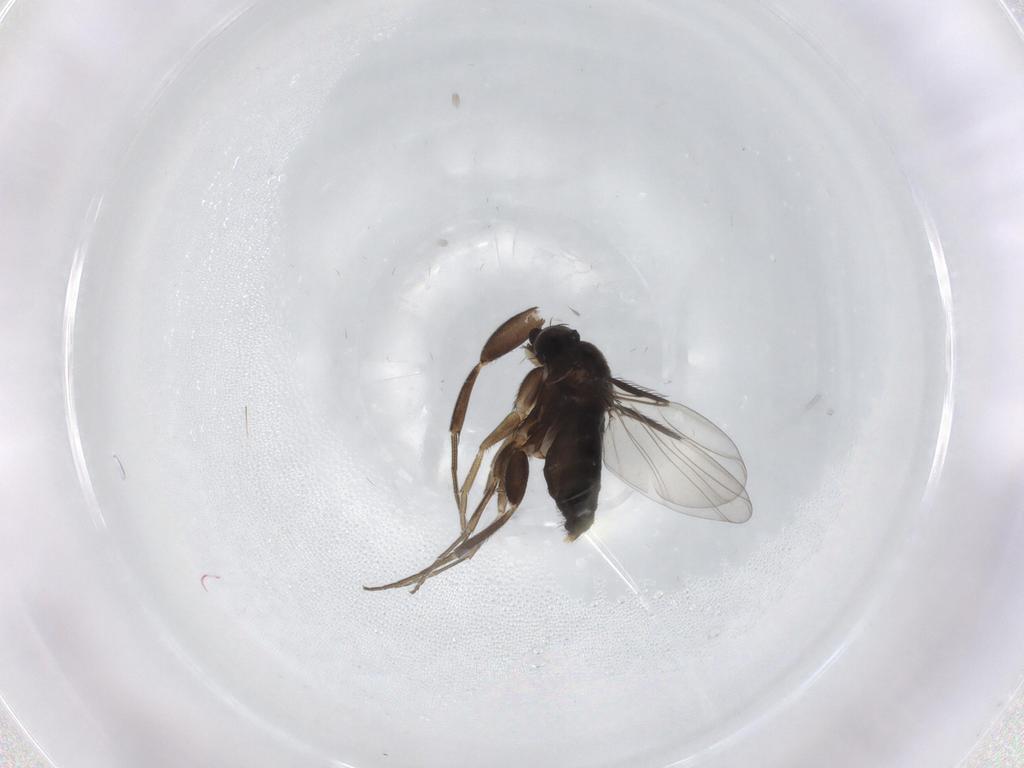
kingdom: Animalia
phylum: Arthropoda
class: Insecta
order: Diptera
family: Phoridae
